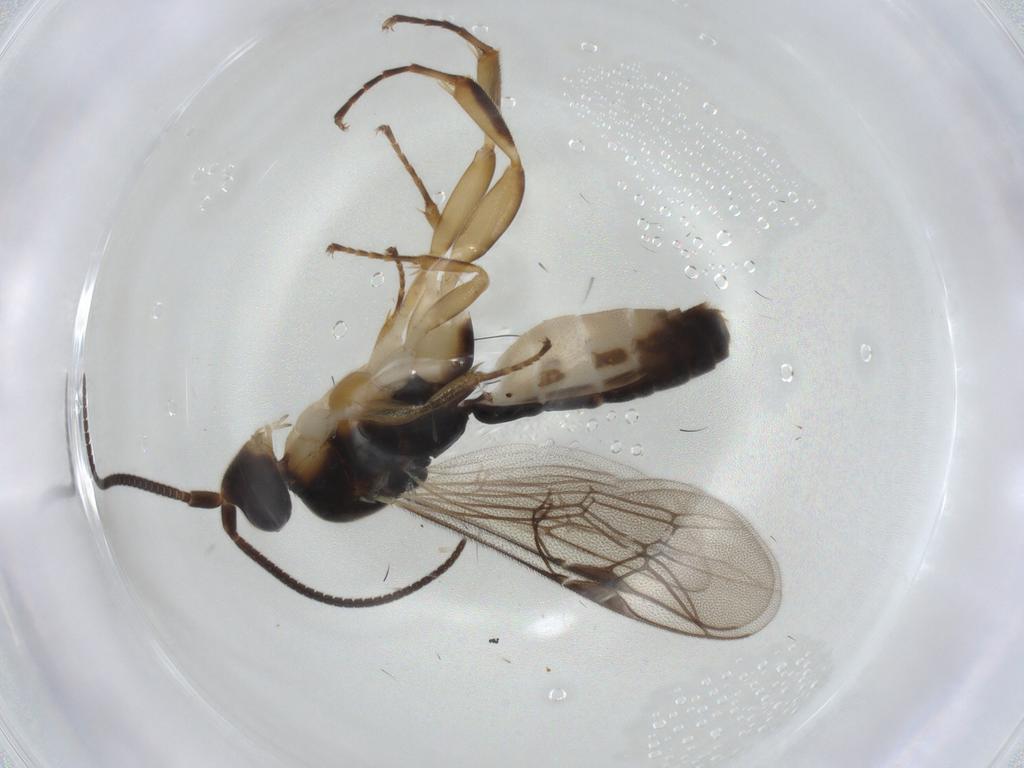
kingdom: Animalia
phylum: Arthropoda
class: Insecta
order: Hymenoptera
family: Ichneumonidae
